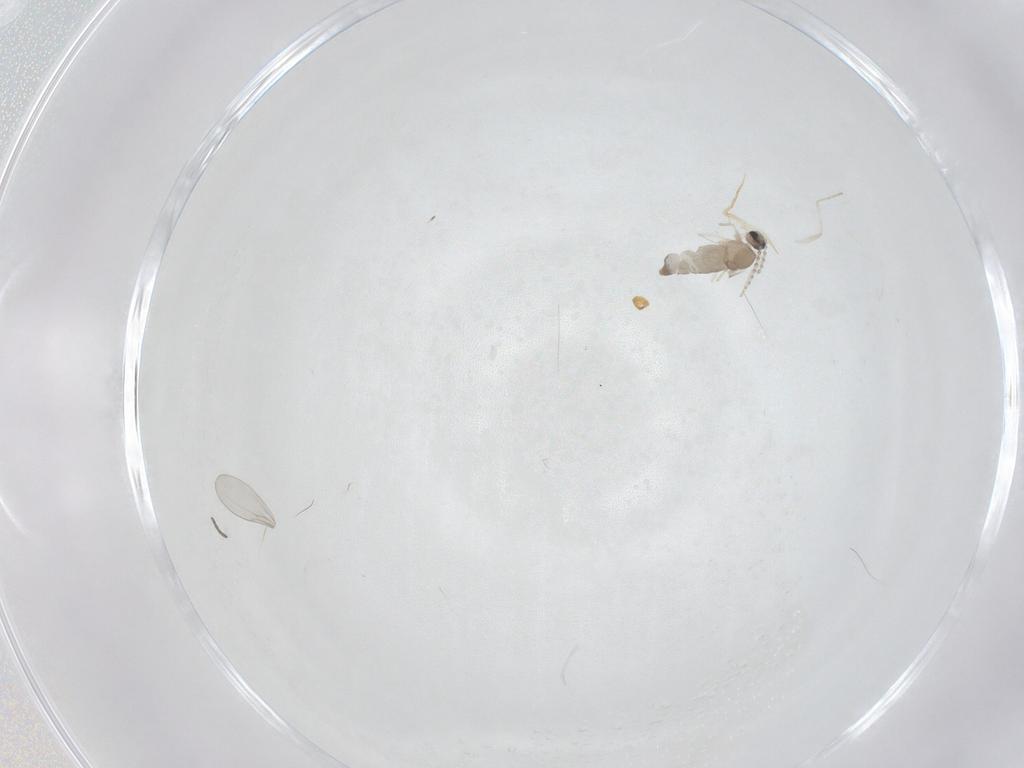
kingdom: Animalia
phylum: Arthropoda
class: Insecta
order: Diptera
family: Cecidomyiidae
